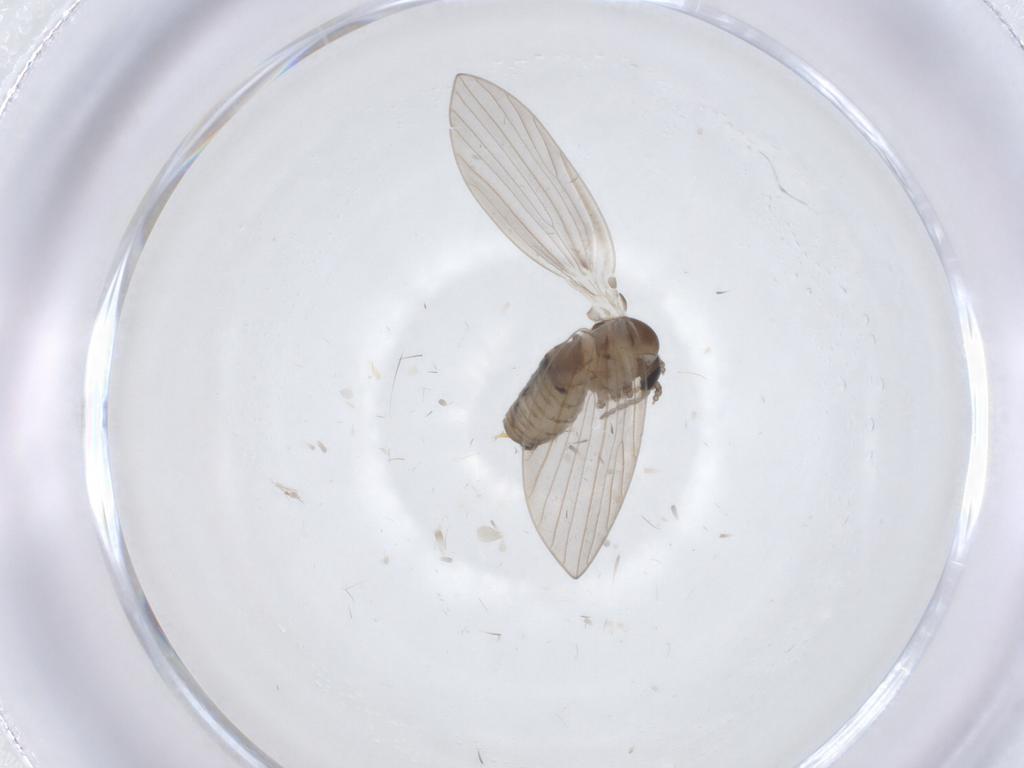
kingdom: Animalia
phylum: Arthropoda
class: Insecta
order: Diptera
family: Psychodidae
